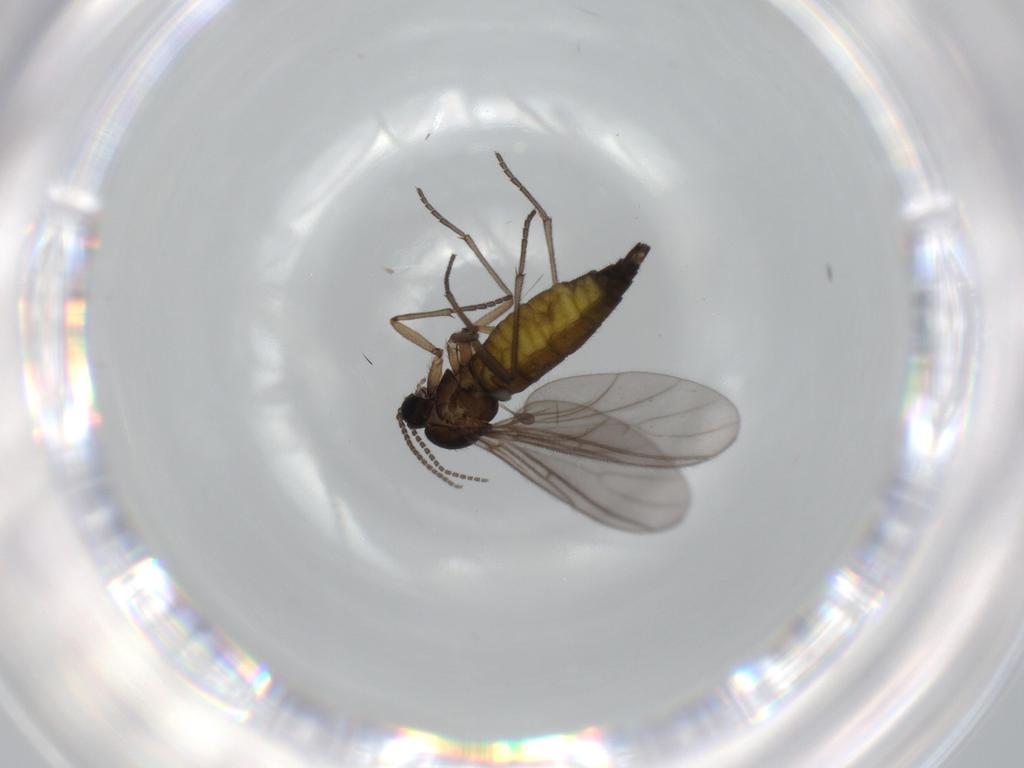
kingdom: Animalia
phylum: Arthropoda
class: Insecta
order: Diptera
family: Sciaridae
